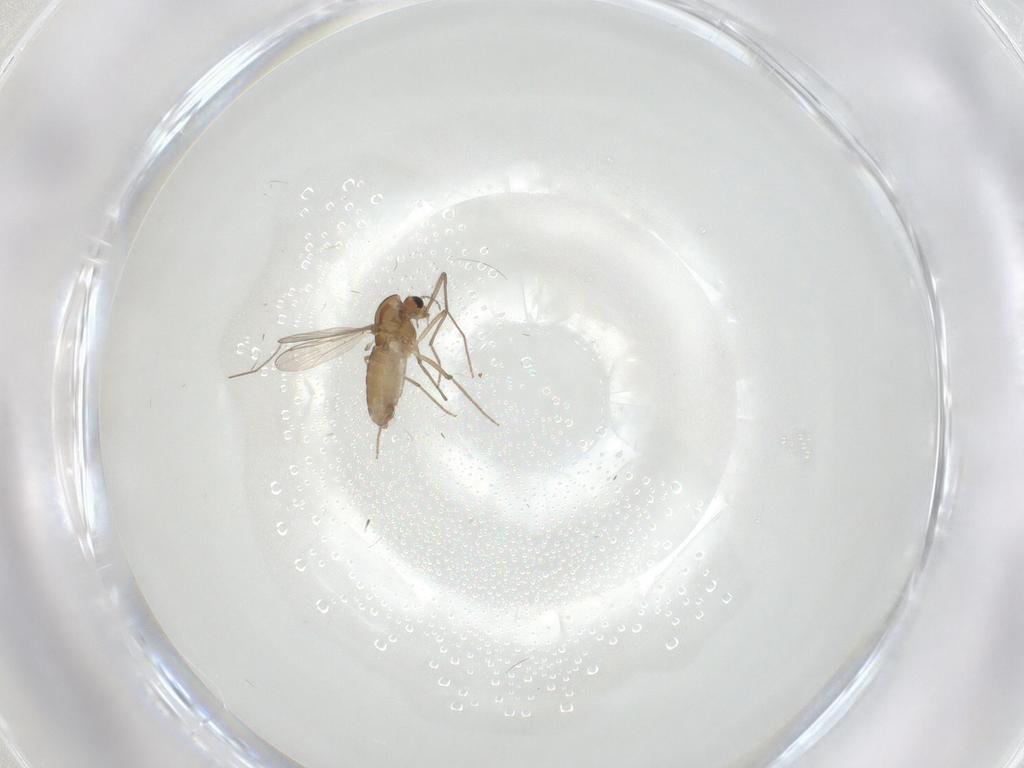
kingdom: Animalia
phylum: Arthropoda
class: Insecta
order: Diptera
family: Chironomidae
